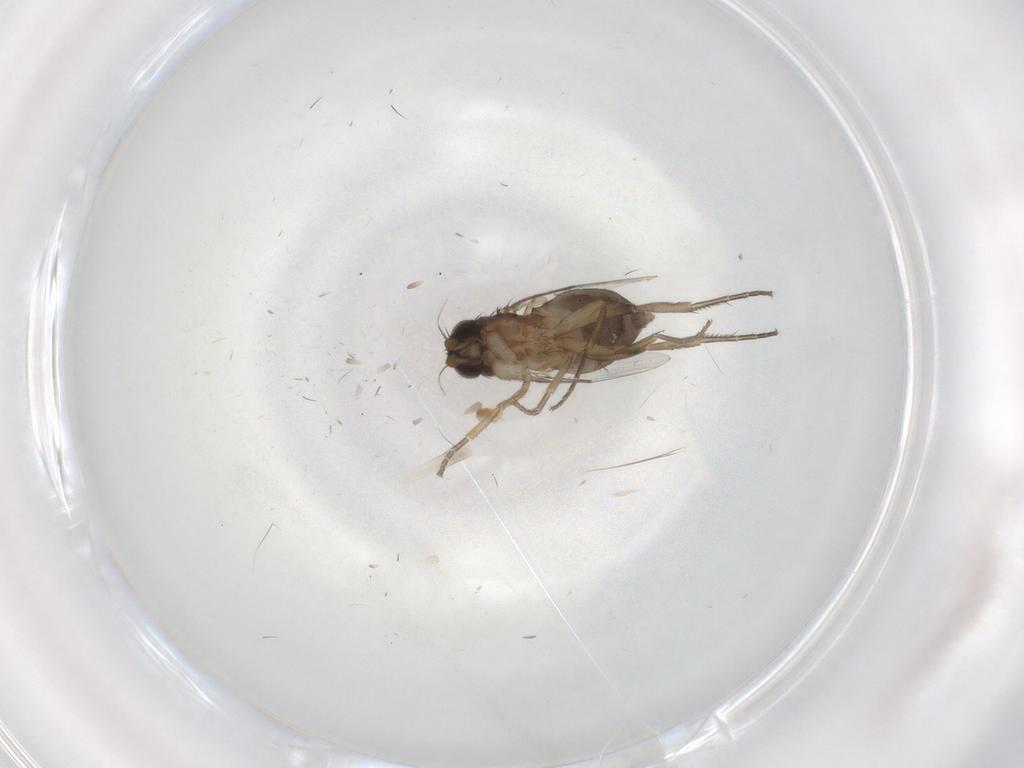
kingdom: Animalia
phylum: Arthropoda
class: Insecta
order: Diptera
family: Phoridae
